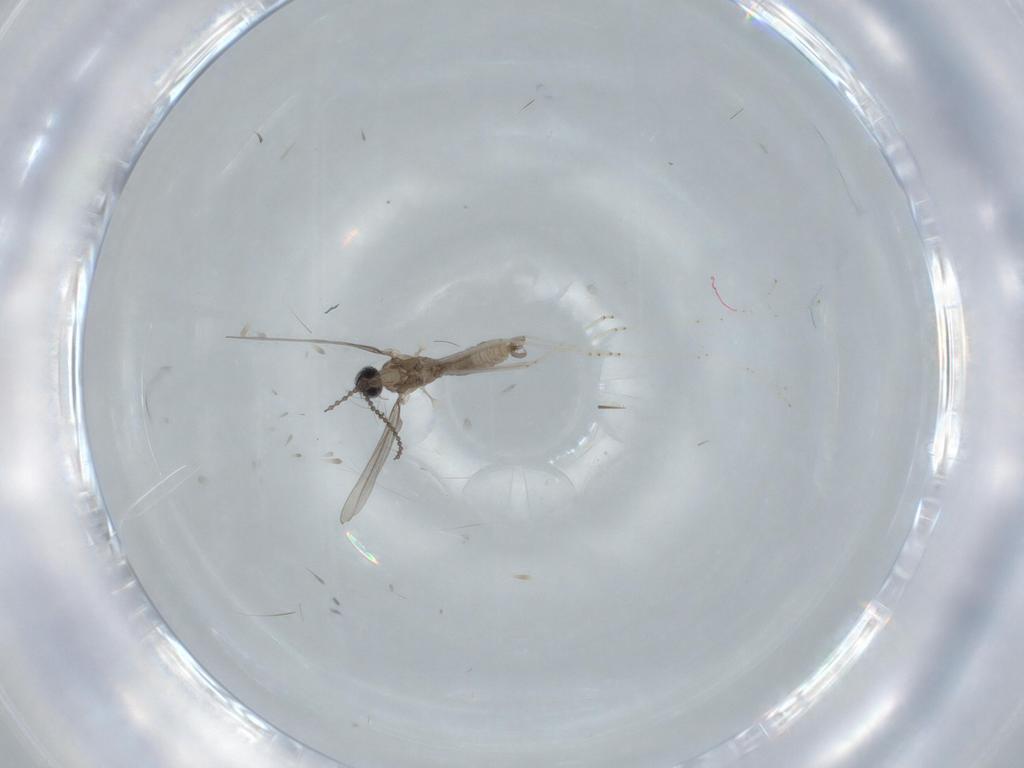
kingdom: Animalia
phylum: Arthropoda
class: Insecta
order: Diptera
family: Cecidomyiidae
